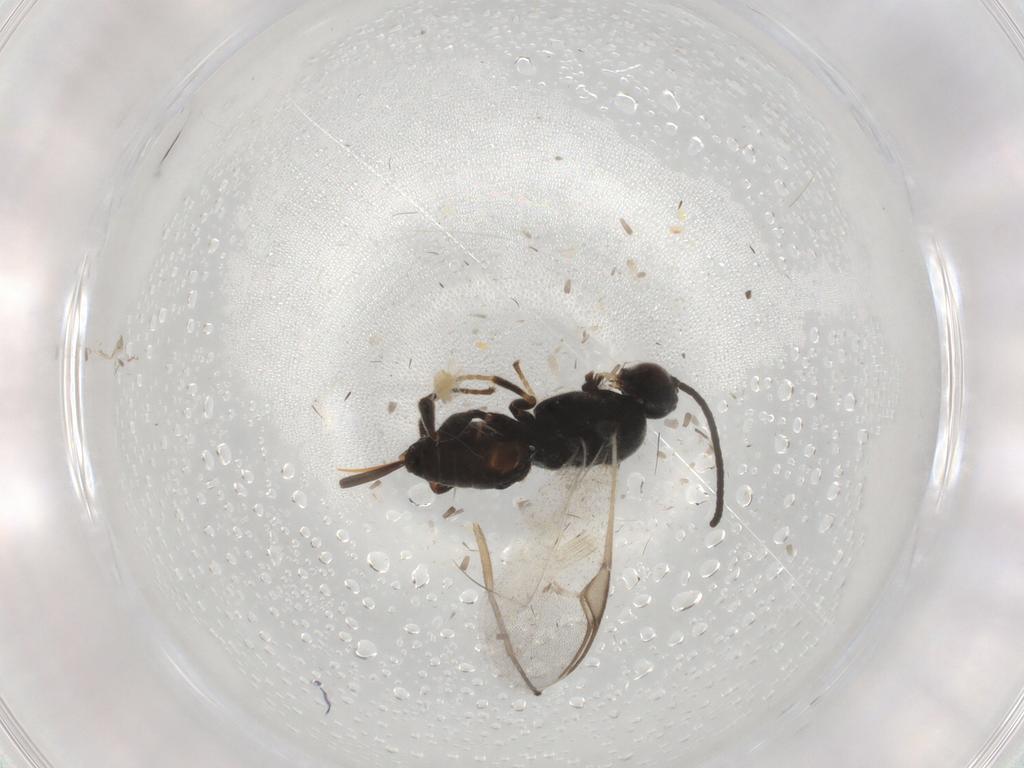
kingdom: Animalia
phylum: Arthropoda
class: Insecta
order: Hymenoptera
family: Braconidae
